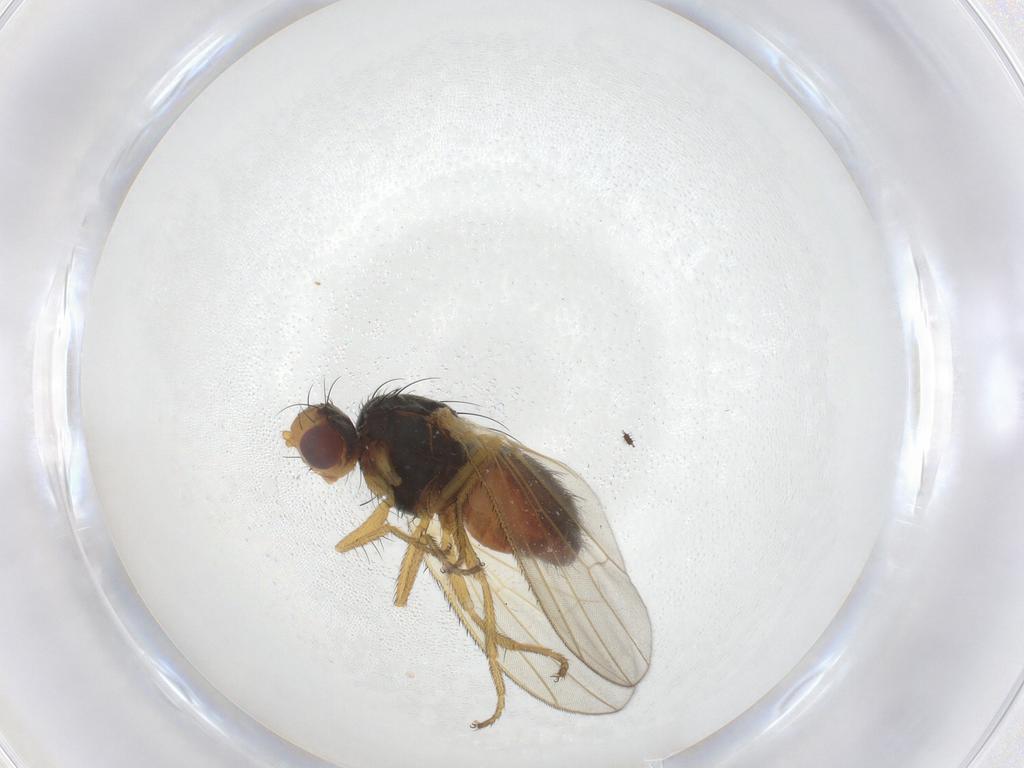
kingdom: Animalia
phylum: Arthropoda
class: Insecta
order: Diptera
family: Heleomyzidae
